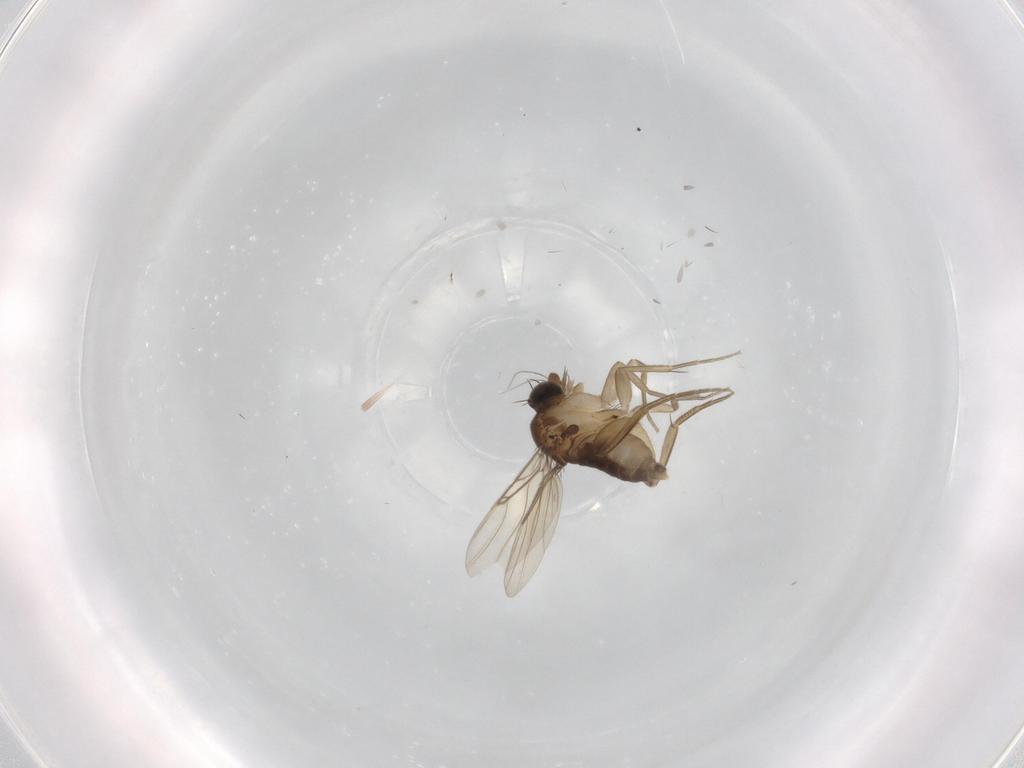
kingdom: Animalia
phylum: Arthropoda
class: Insecta
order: Diptera
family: Phoridae
